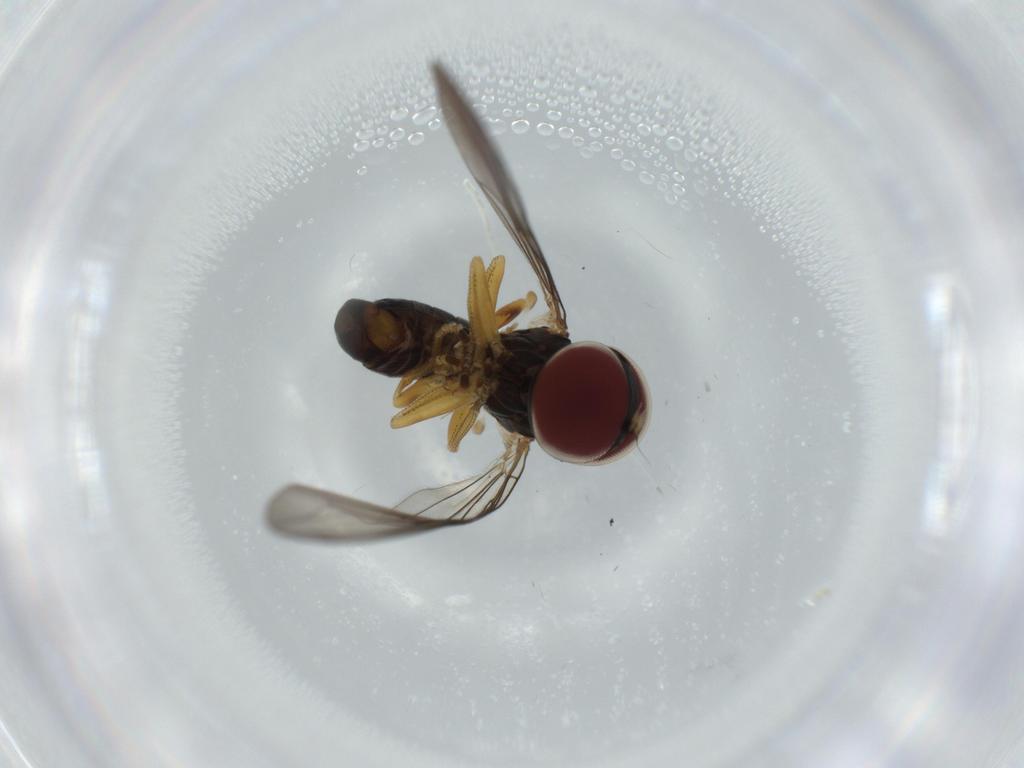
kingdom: Animalia
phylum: Arthropoda
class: Insecta
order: Diptera
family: Pipunculidae
